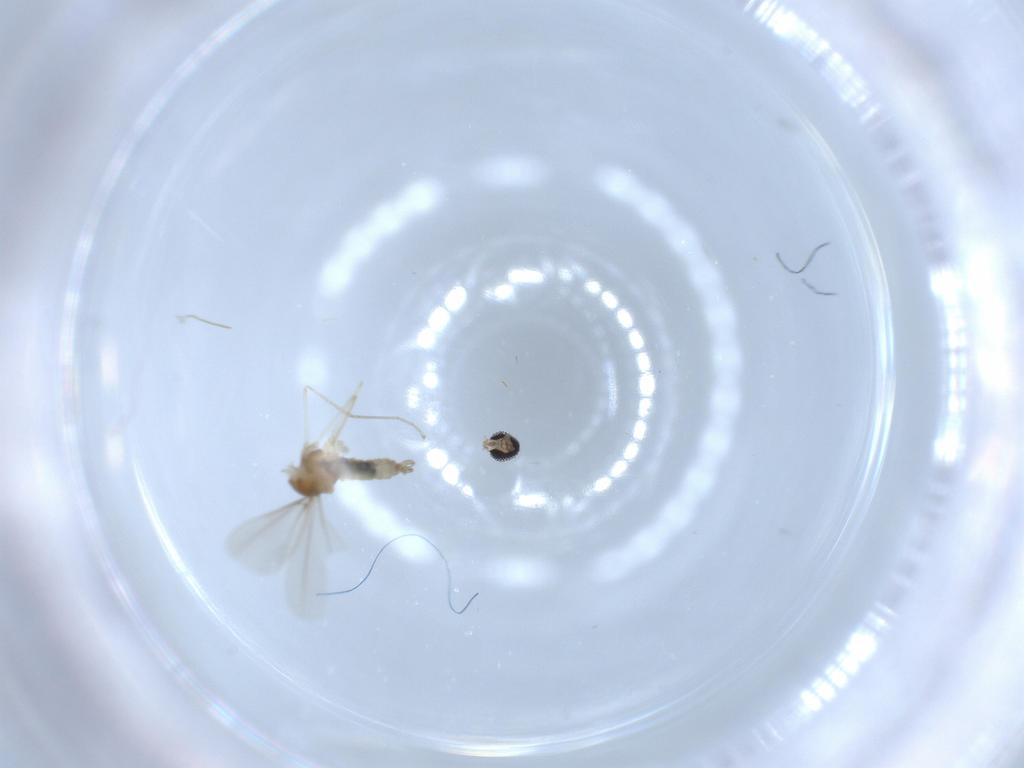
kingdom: Animalia
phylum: Arthropoda
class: Insecta
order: Diptera
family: Cecidomyiidae
